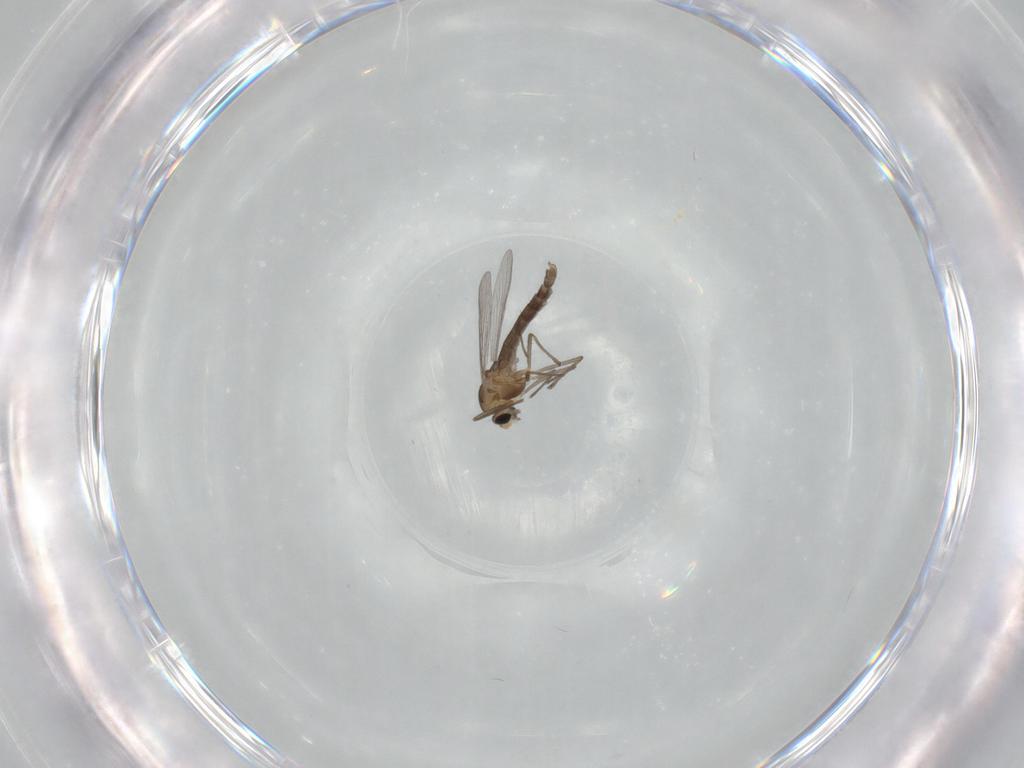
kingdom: Animalia
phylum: Arthropoda
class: Insecta
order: Diptera
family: Chironomidae
